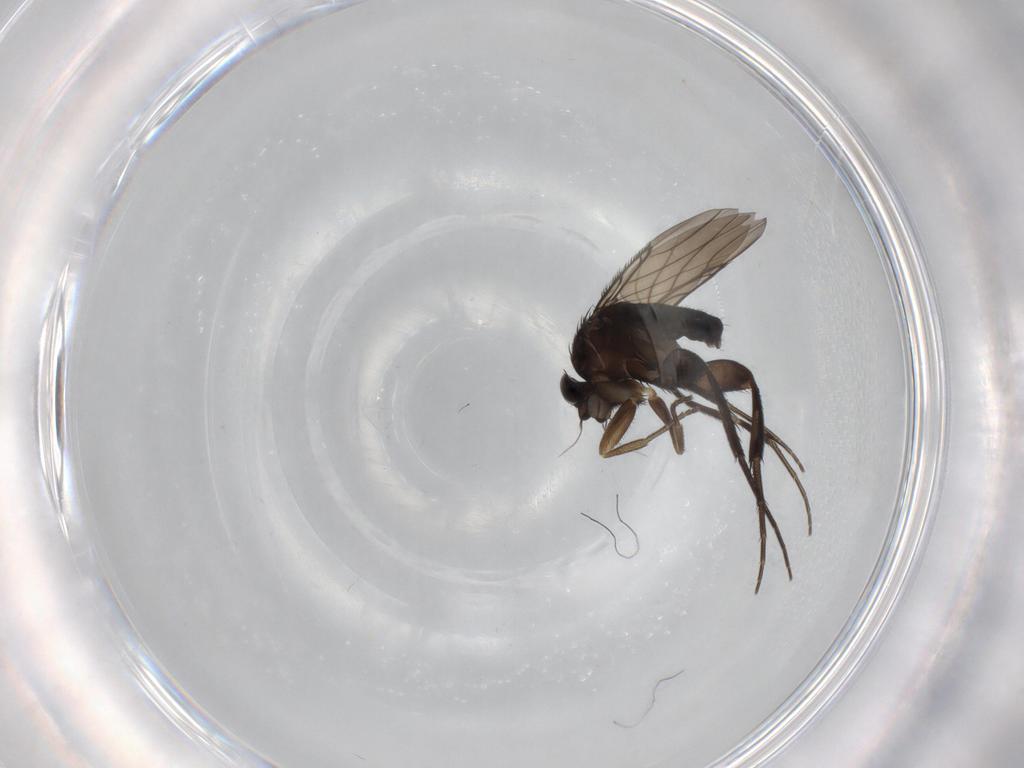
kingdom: Animalia
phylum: Arthropoda
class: Insecta
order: Diptera
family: Phoridae
